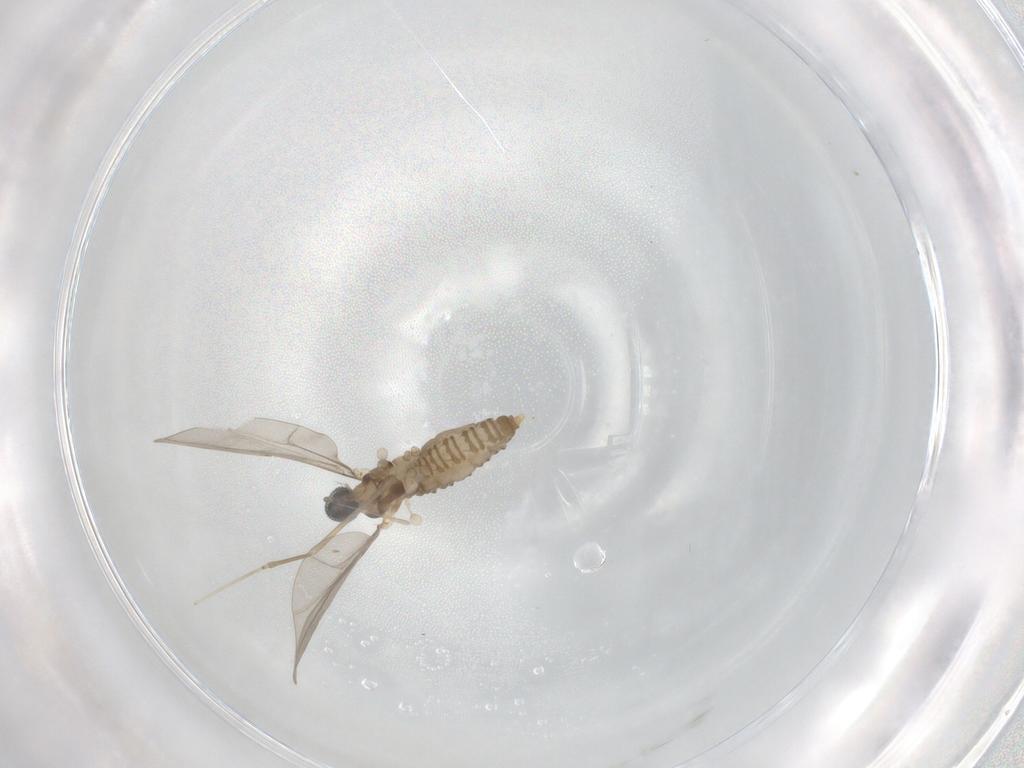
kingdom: Animalia
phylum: Arthropoda
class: Insecta
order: Diptera
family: Cecidomyiidae
